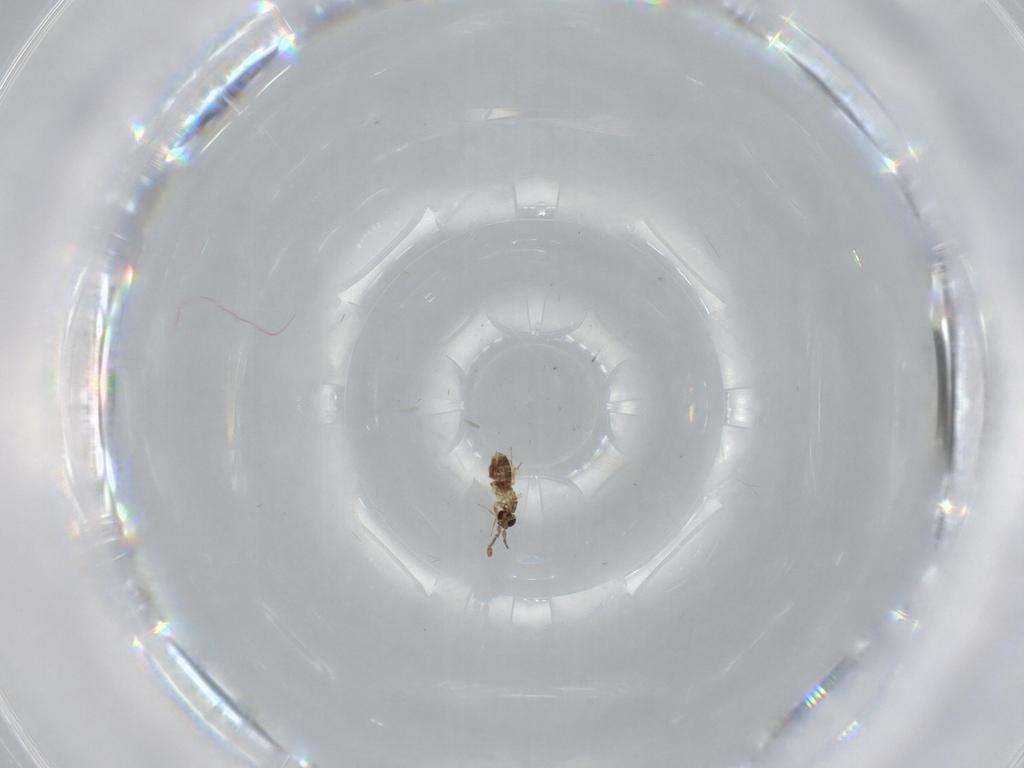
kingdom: Animalia
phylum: Arthropoda
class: Insecta
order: Hymenoptera
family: Mymaridae
